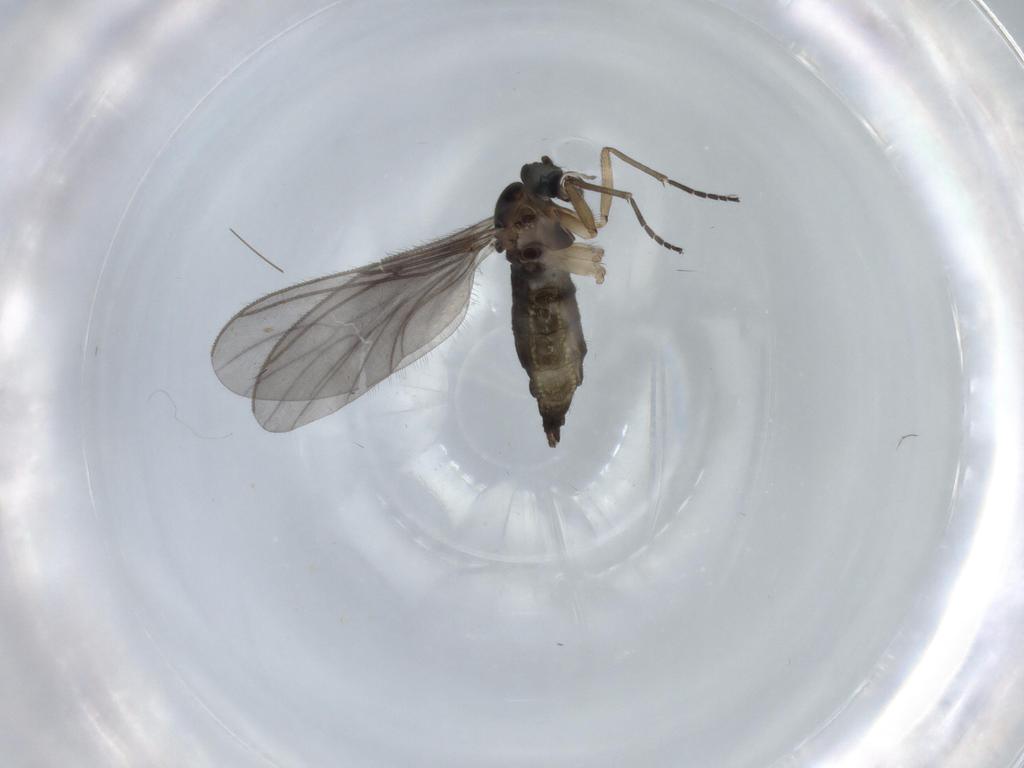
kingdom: Animalia
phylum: Arthropoda
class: Insecta
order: Diptera
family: Sciaridae
